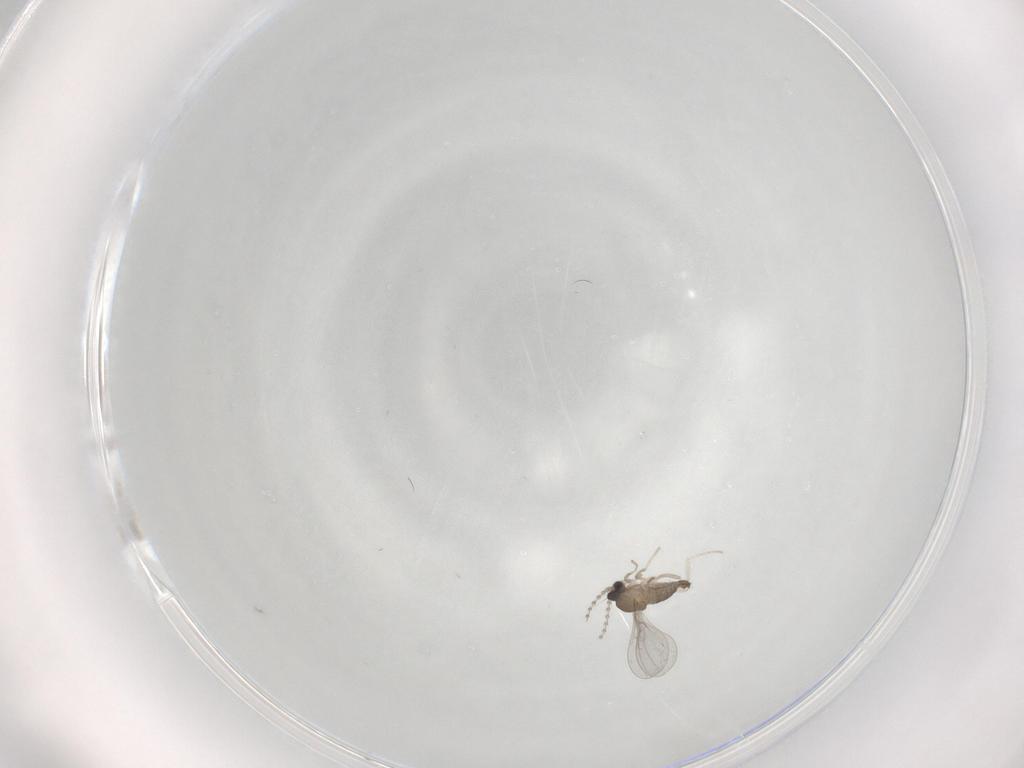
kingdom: Animalia
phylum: Arthropoda
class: Insecta
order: Diptera
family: Cecidomyiidae
